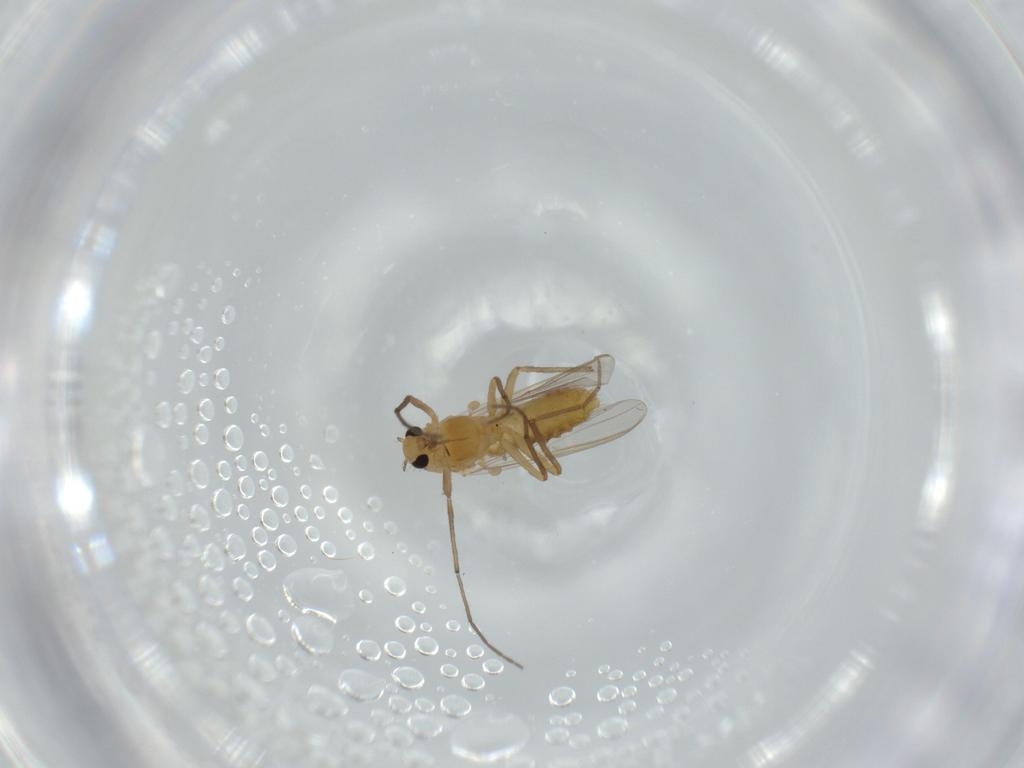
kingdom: Animalia
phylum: Arthropoda
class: Insecta
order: Diptera
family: Chironomidae
